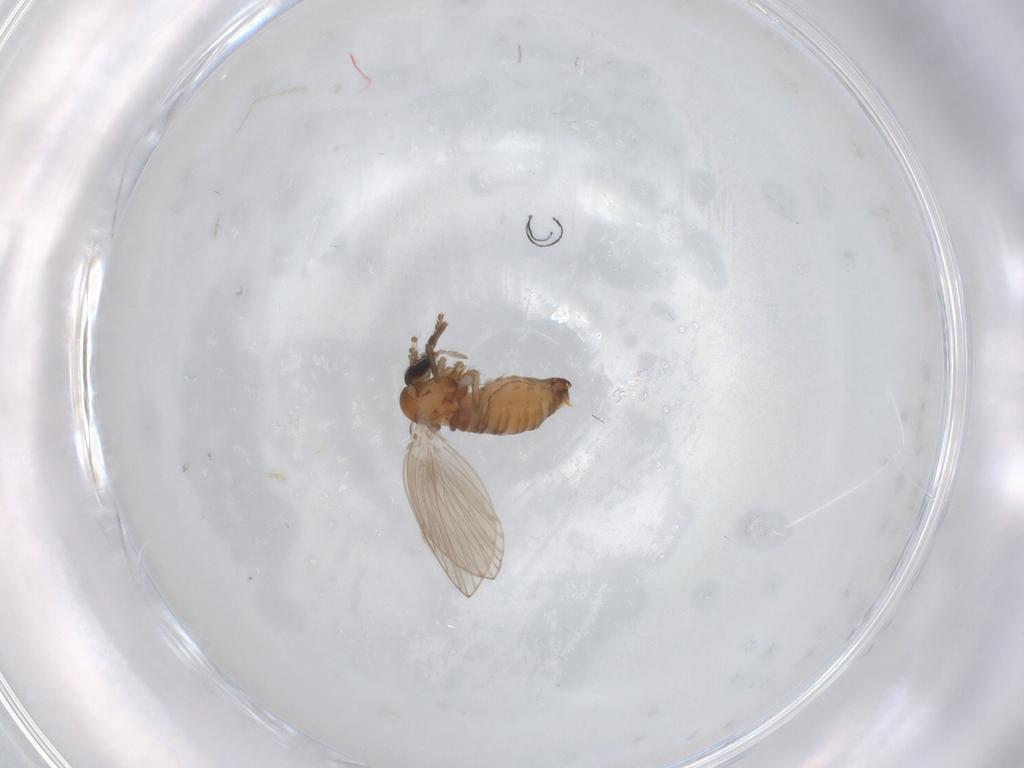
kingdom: Animalia
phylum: Arthropoda
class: Insecta
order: Diptera
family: Psychodidae
